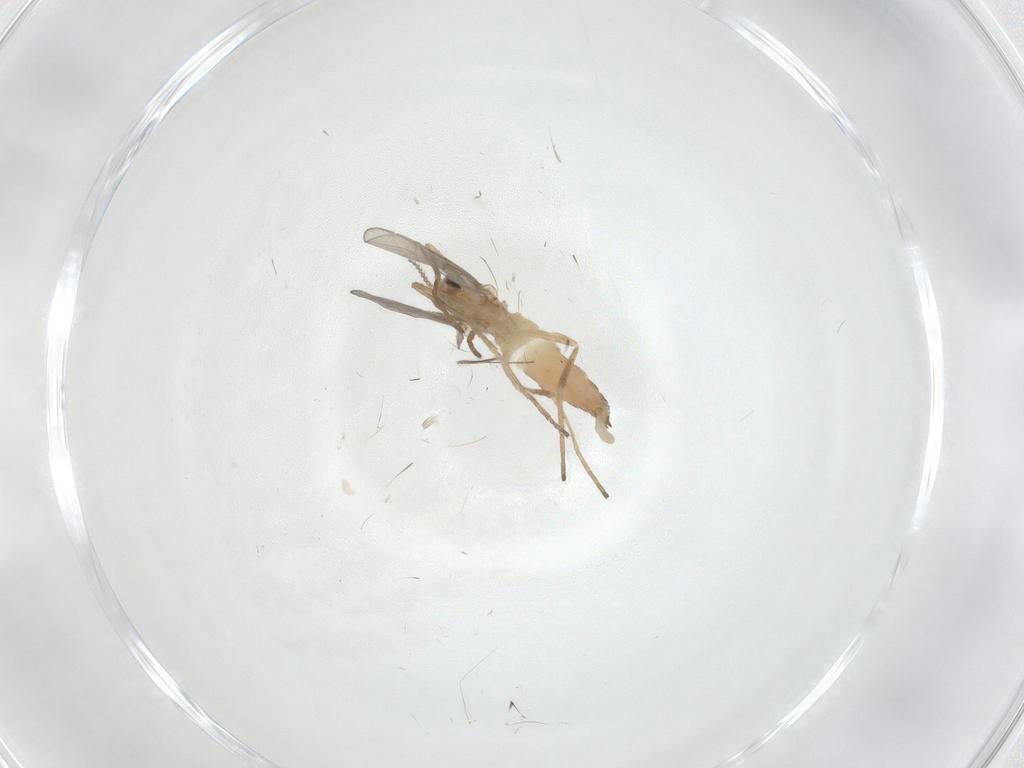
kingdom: Animalia
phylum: Arthropoda
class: Insecta
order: Diptera
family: Cecidomyiidae
